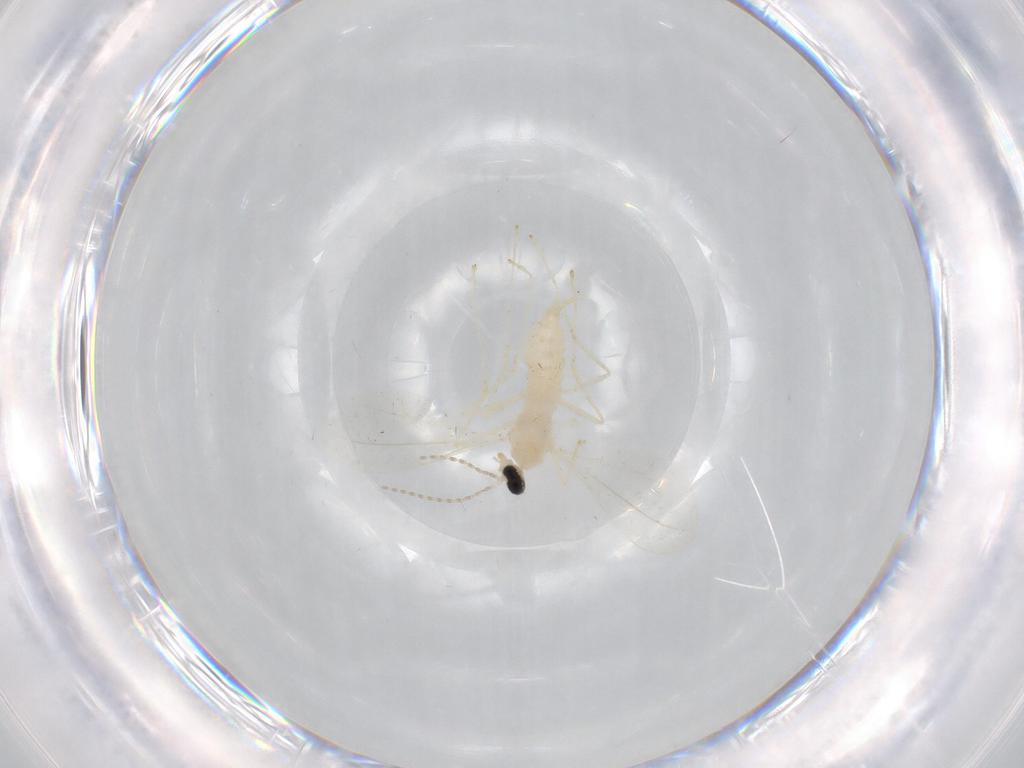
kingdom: Animalia
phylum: Arthropoda
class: Insecta
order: Diptera
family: Cecidomyiidae
